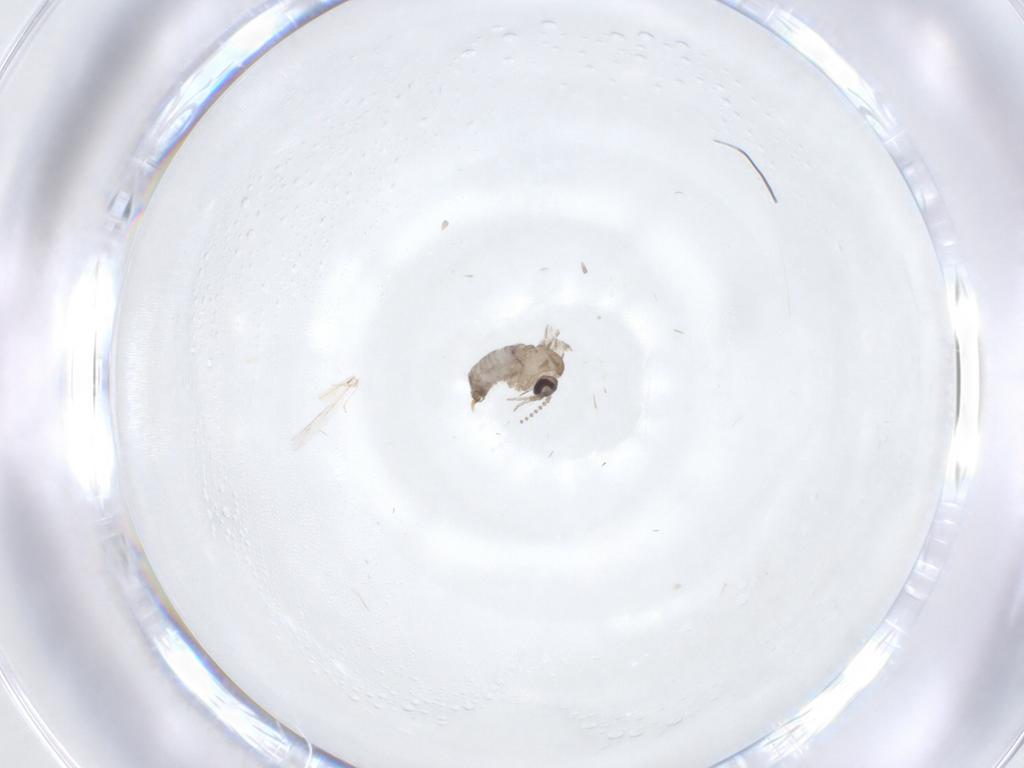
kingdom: Animalia
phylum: Arthropoda
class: Insecta
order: Diptera
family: Psychodidae
